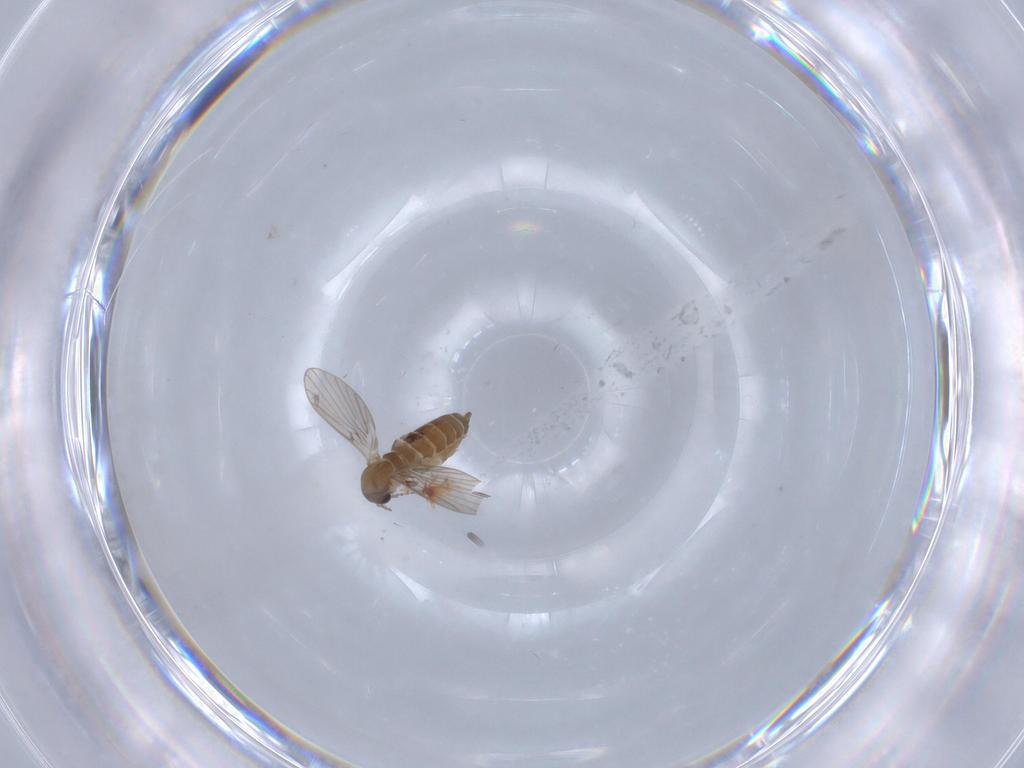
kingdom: Animalia
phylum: Arthropoda
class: Insecta
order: Diptera
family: Psychodidae
